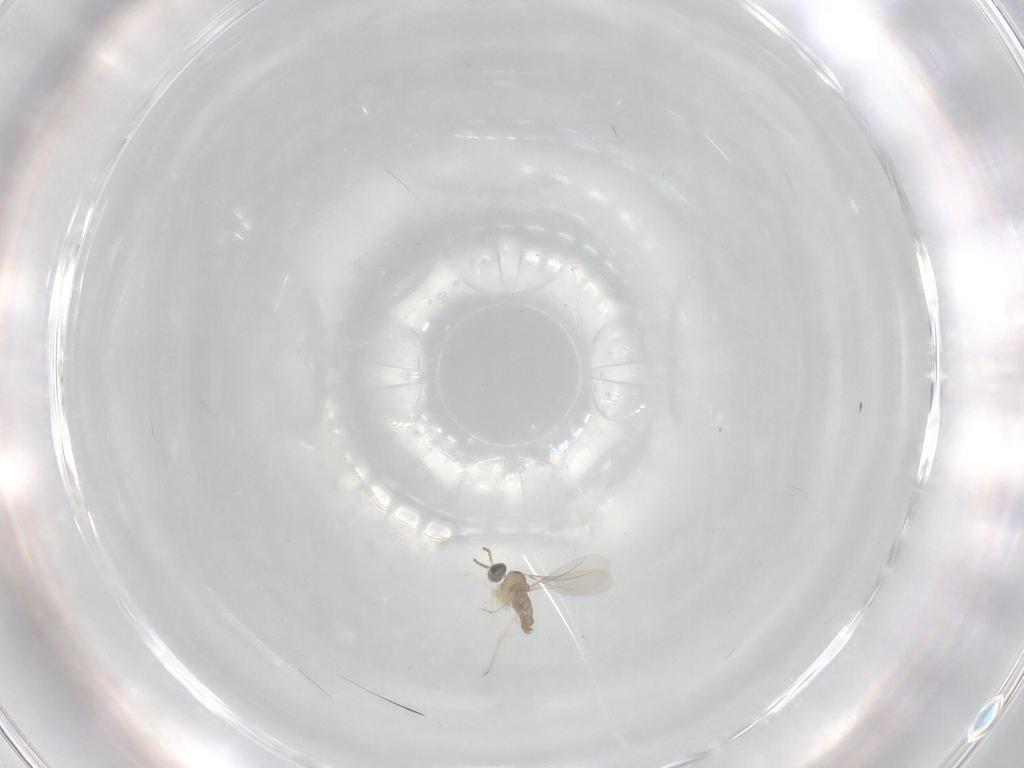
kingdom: Animalia
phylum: Arthropoda
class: Insecta
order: Diptera
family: Cecidomyiidae
